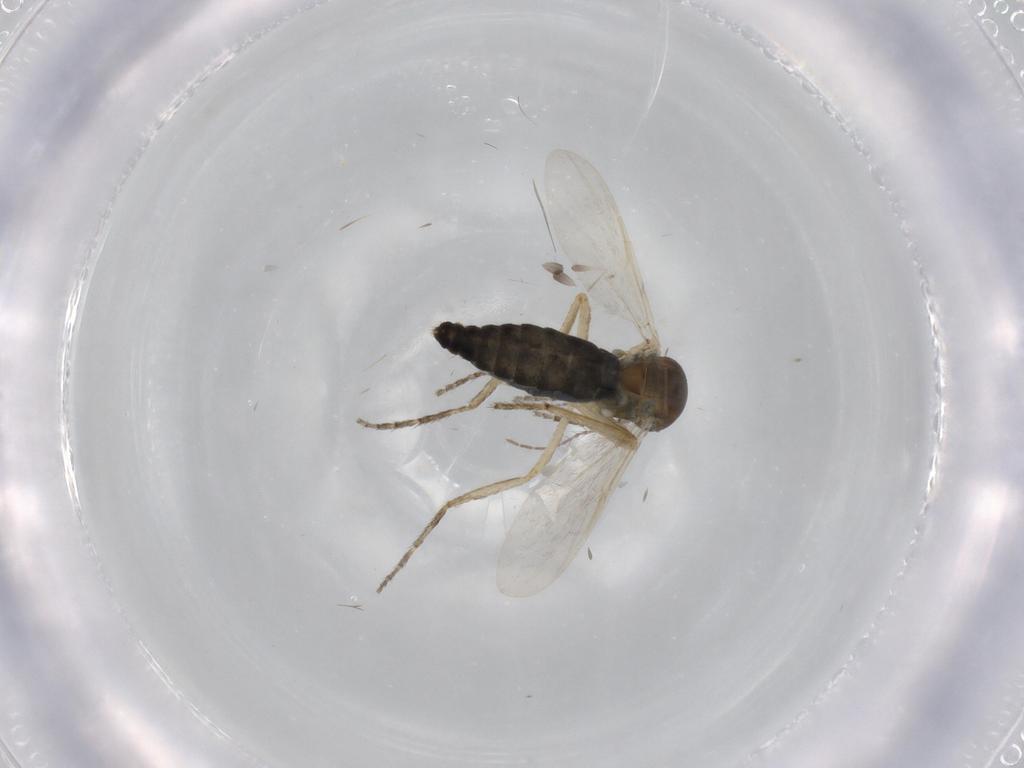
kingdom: Animalia
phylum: Arthropoda
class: Insecta
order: Diptera
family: Ceratopogonidae
